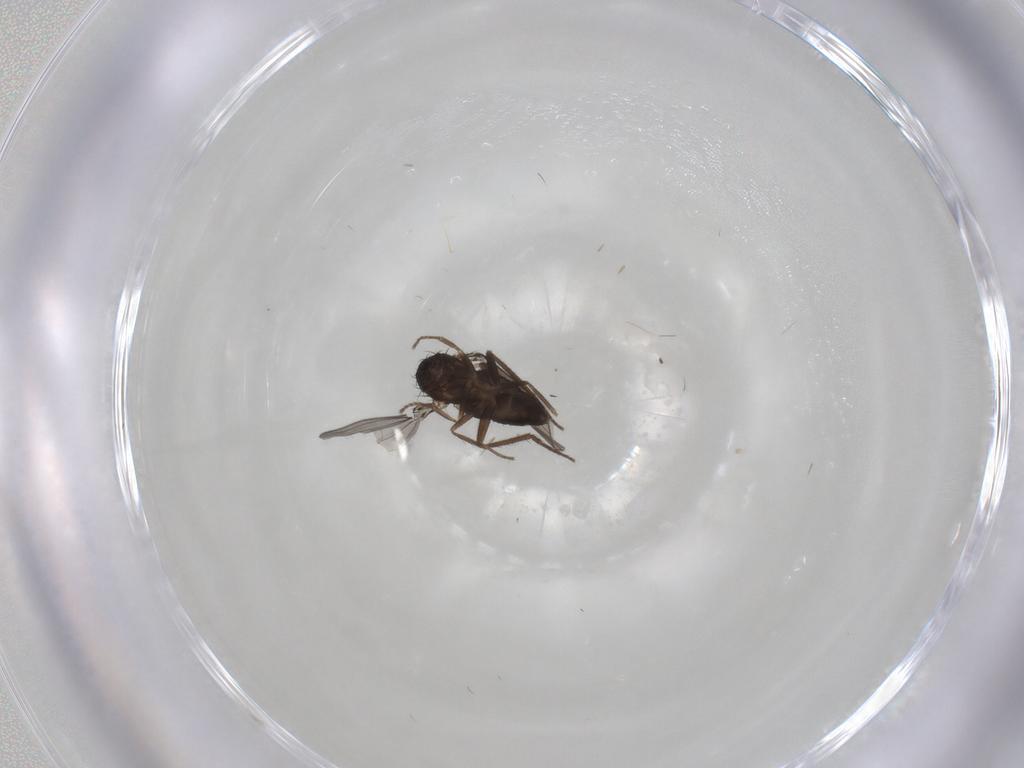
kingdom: Animalia
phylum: Arthropoda
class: Insecta
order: Diptera
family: Dolichopodidae
